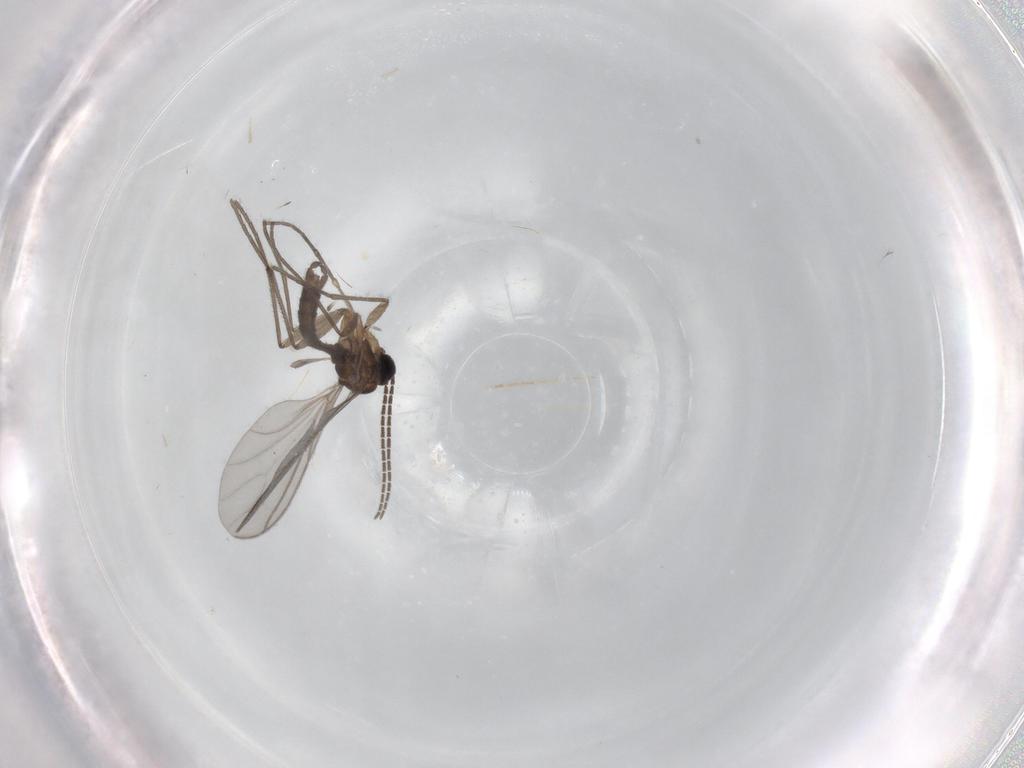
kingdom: Animalia
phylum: Arthropoda
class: Insecta
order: Diptera
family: Sciaridae
